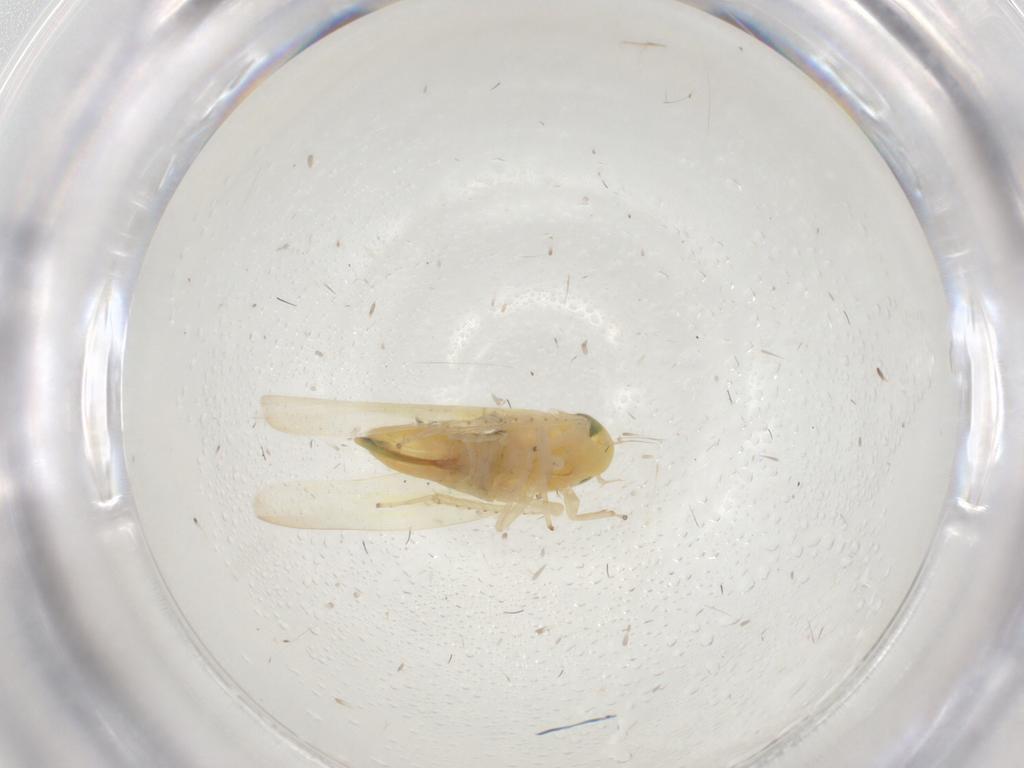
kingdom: Animalia
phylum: Arthropoda
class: Insecta
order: Hemiptera
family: Cicadellidae
